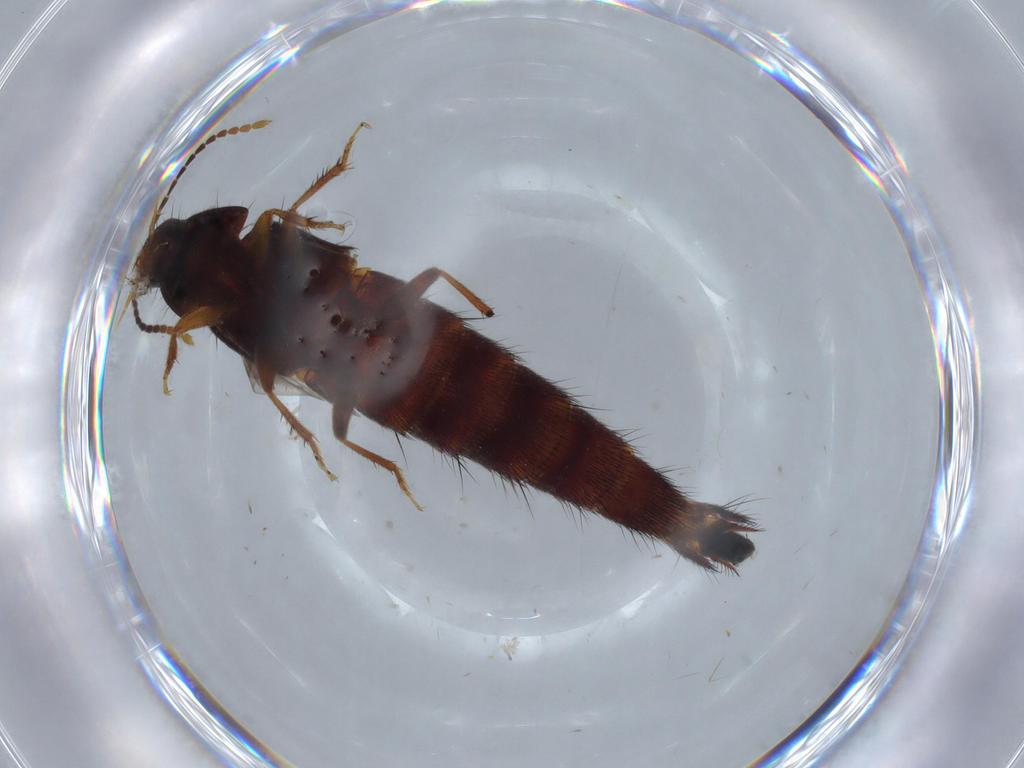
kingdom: Animalia
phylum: Arthropoda
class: Insecta
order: Coleoptera
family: Staphylinidae
